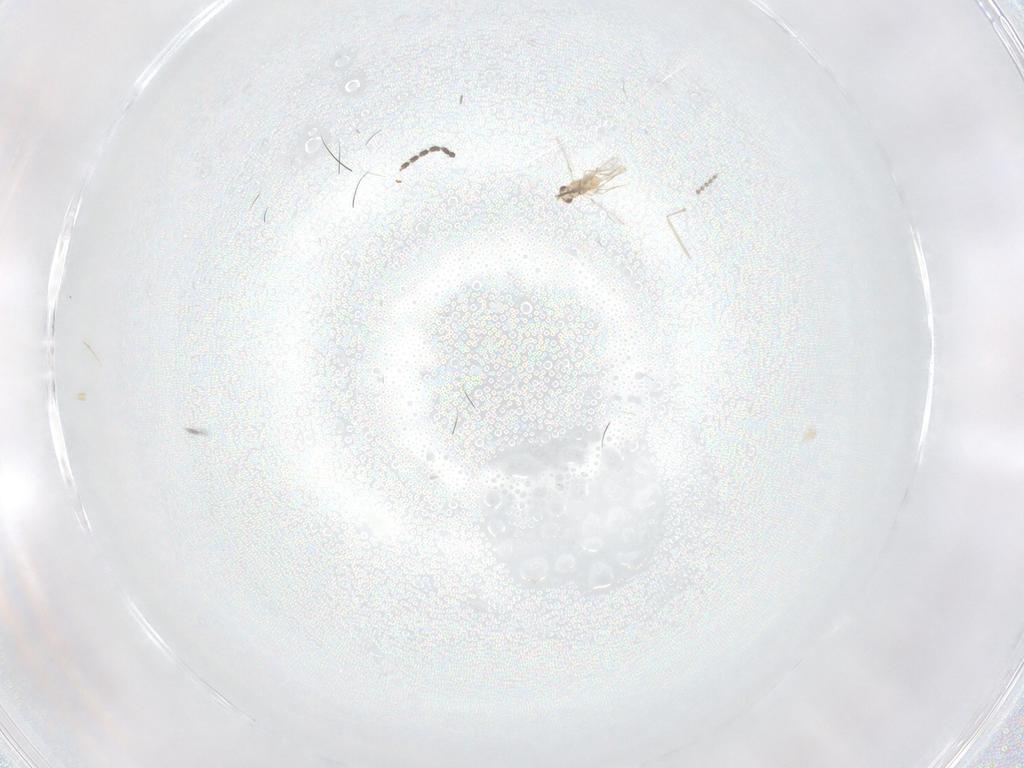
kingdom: Animalia
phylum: Arthropoda
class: Insecta
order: Diptera
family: Cecidomyiidae
